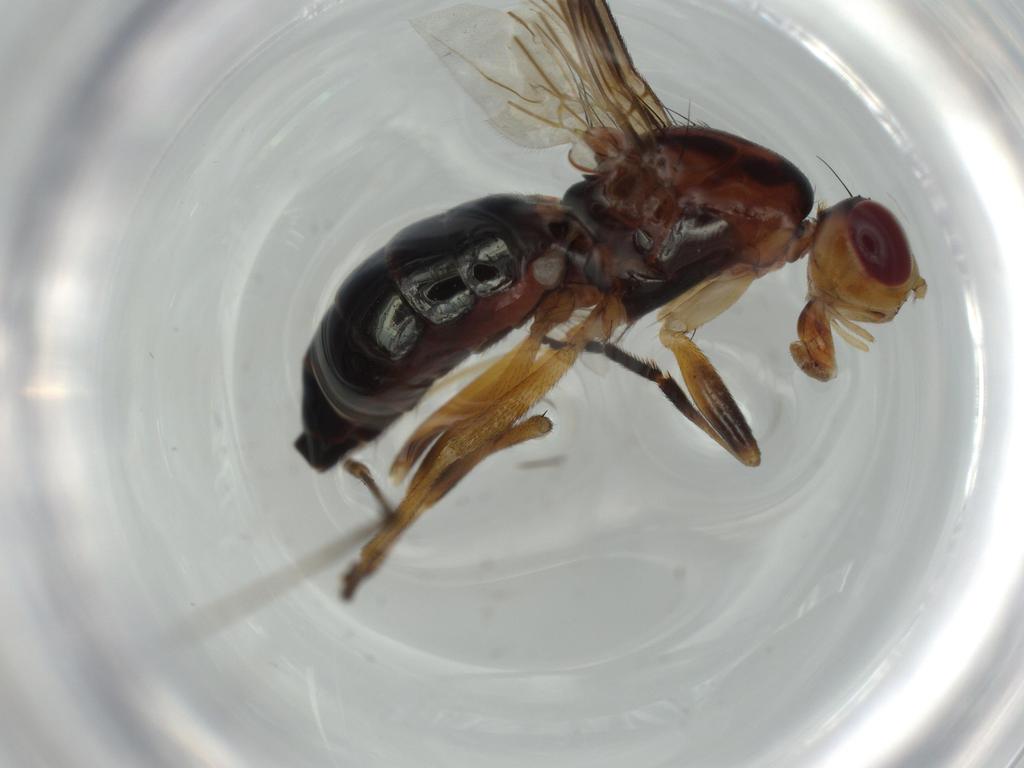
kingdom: Animalia
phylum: Arthropoda
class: Insecta
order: Diptera
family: Phoridae
